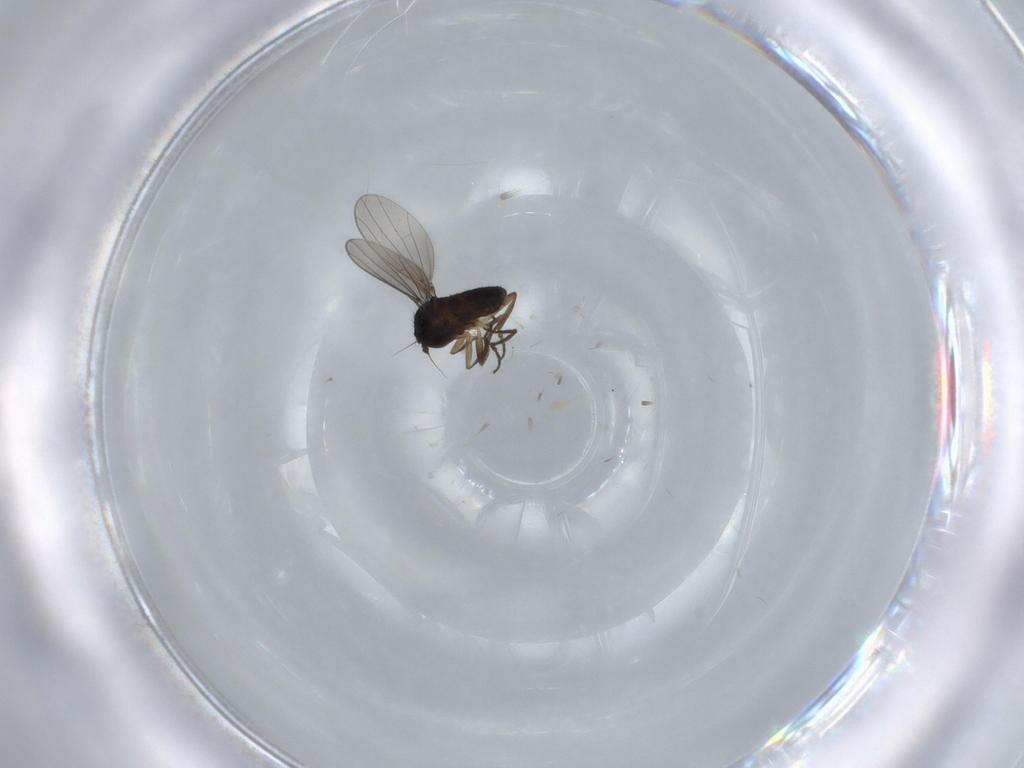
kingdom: Animalia
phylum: Arthropoda
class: Insecta
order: Diptera
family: Dolichopodidae
